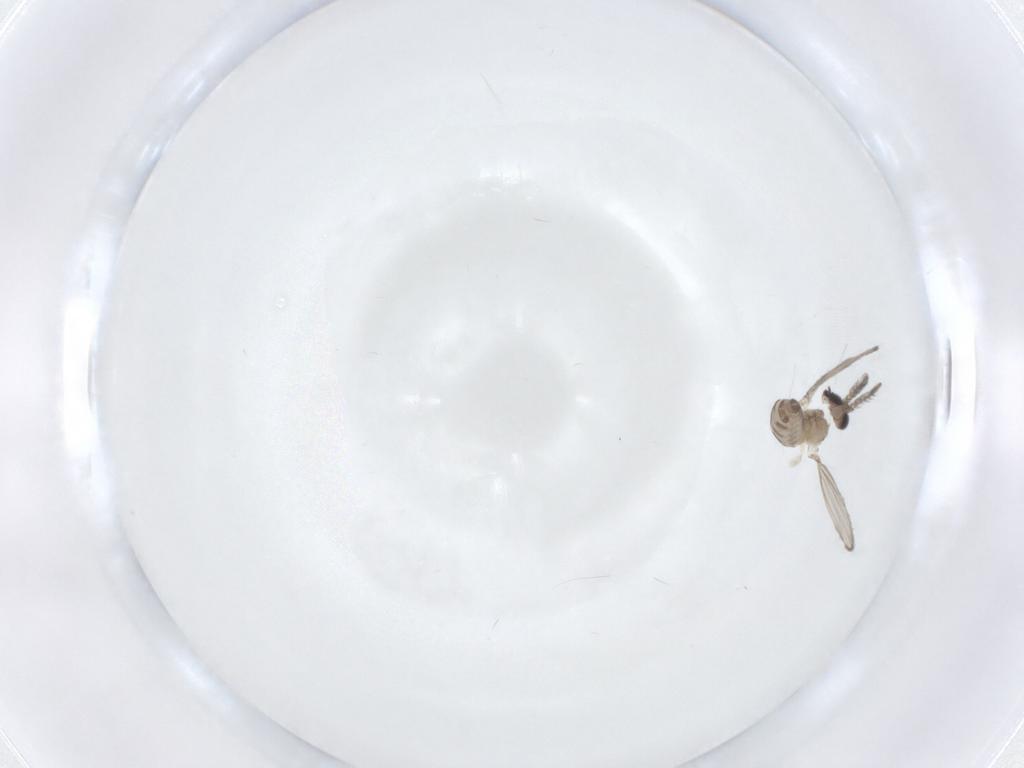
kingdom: Animalia
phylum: Arthropoda
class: Insecta
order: Diptera
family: Mycetophilidae
